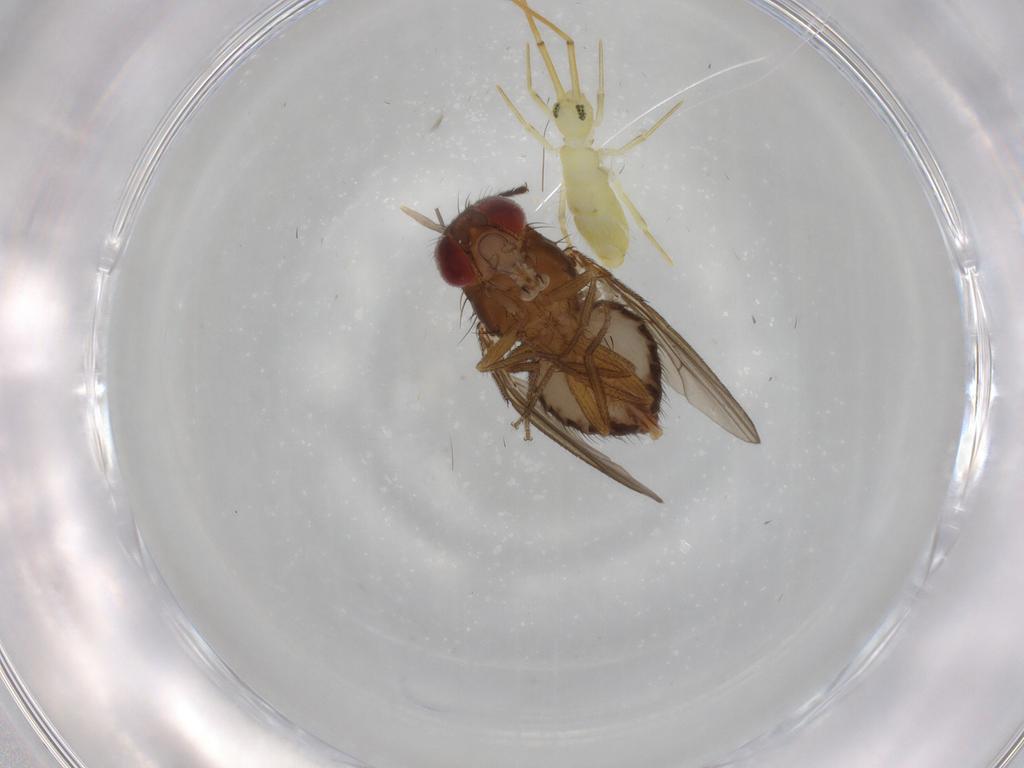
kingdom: Animalia
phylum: Arthropoda
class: Insecta
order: Diptera
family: Drosophilidae
